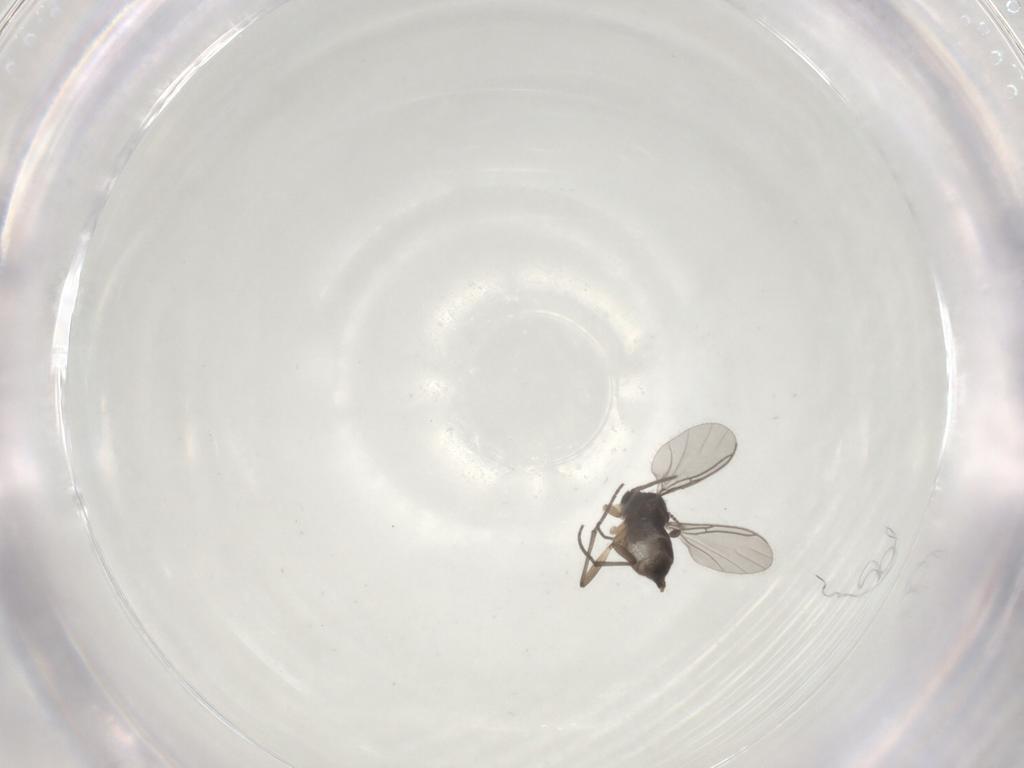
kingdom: Animalia
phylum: Arthropoda
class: Insecta
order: Diptera
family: Sciaridae
